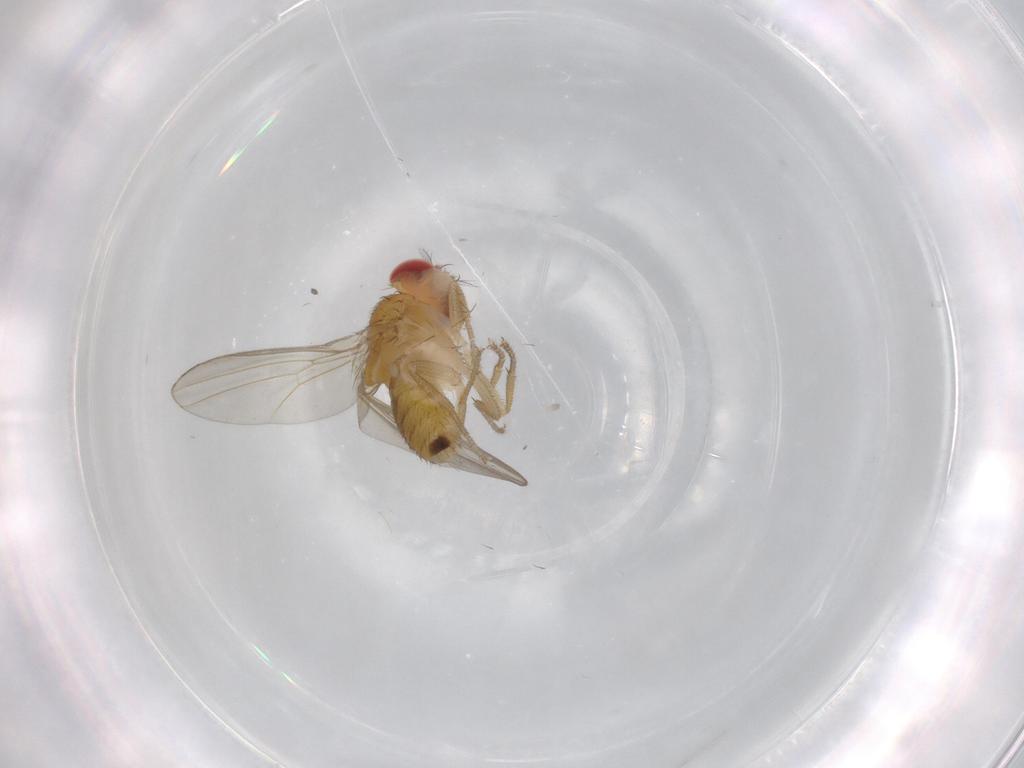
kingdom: Animalia
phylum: Arthropoda
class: Insecta
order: Diptera
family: Drosophilidae
